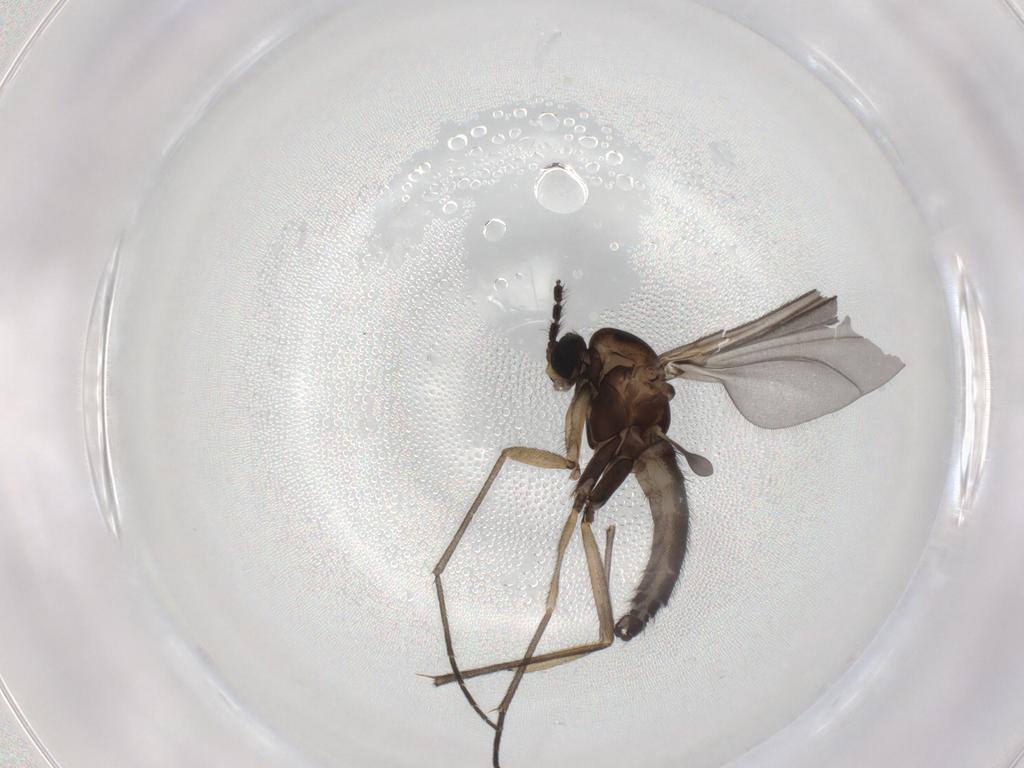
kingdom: Animalia
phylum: Arthropoda
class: Insecta
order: Diptera
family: Sciaridae
